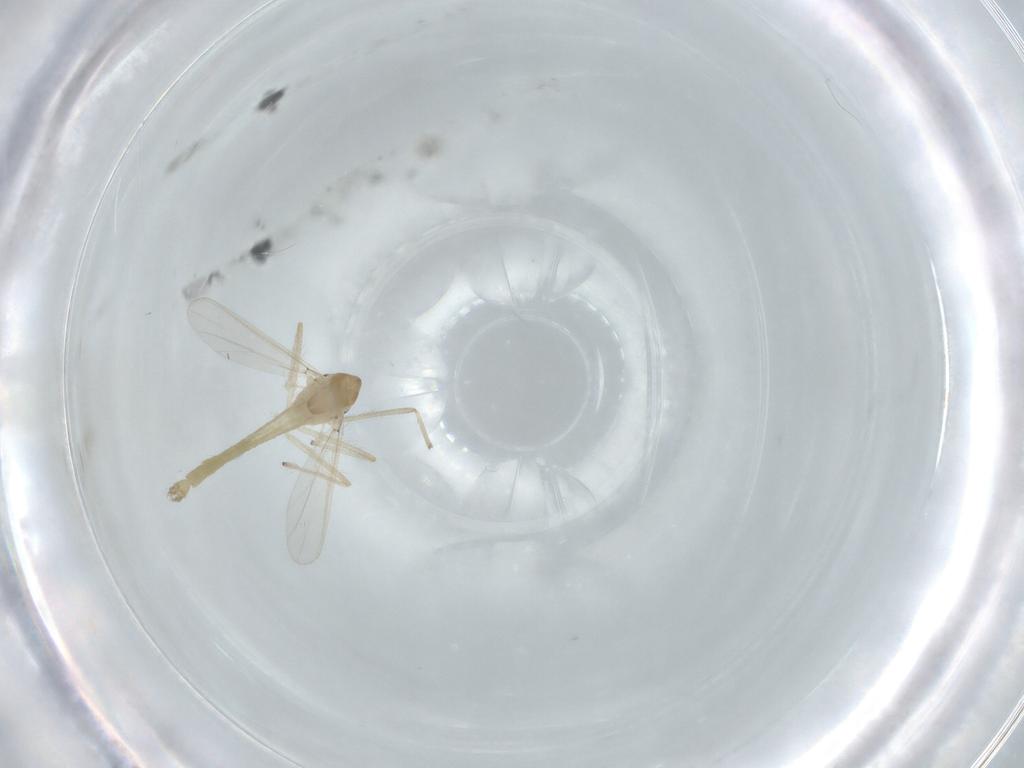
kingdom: Animalia
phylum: Arthropoda
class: Insecta
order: Diptera
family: Chironomidae
